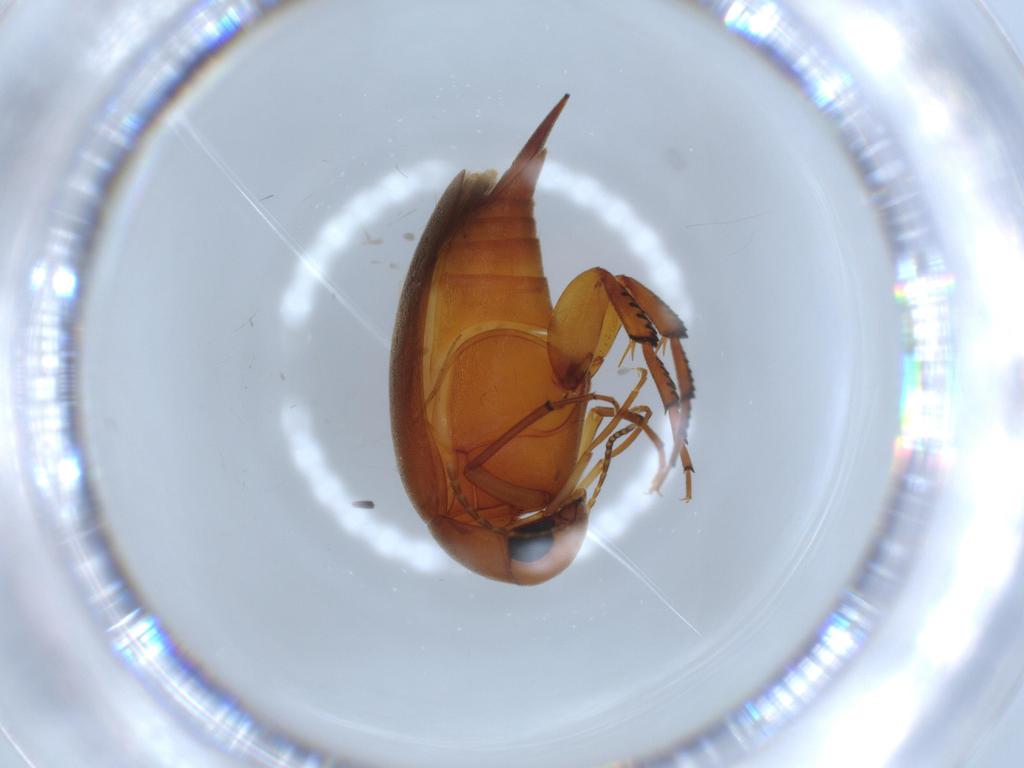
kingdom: Animalia
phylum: Arthropoda
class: Insecta
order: Coleoptera
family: Mordellidae
